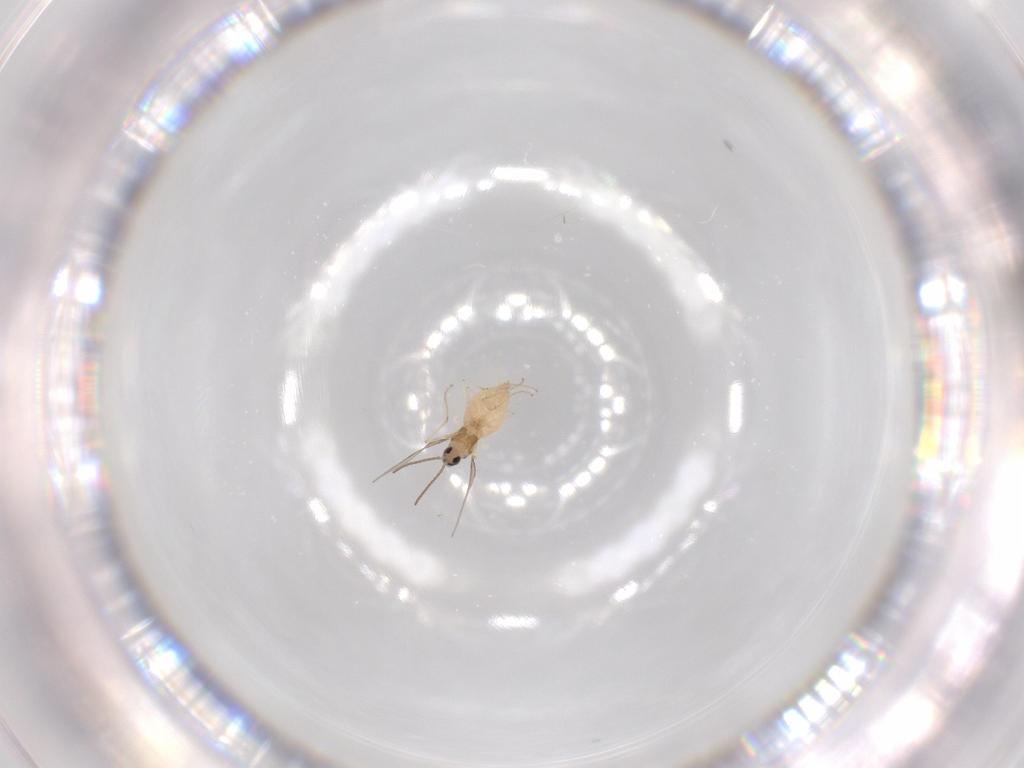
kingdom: Animalia
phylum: Arthropoda
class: Insecta
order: Diptera
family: Cecidomyiidae
